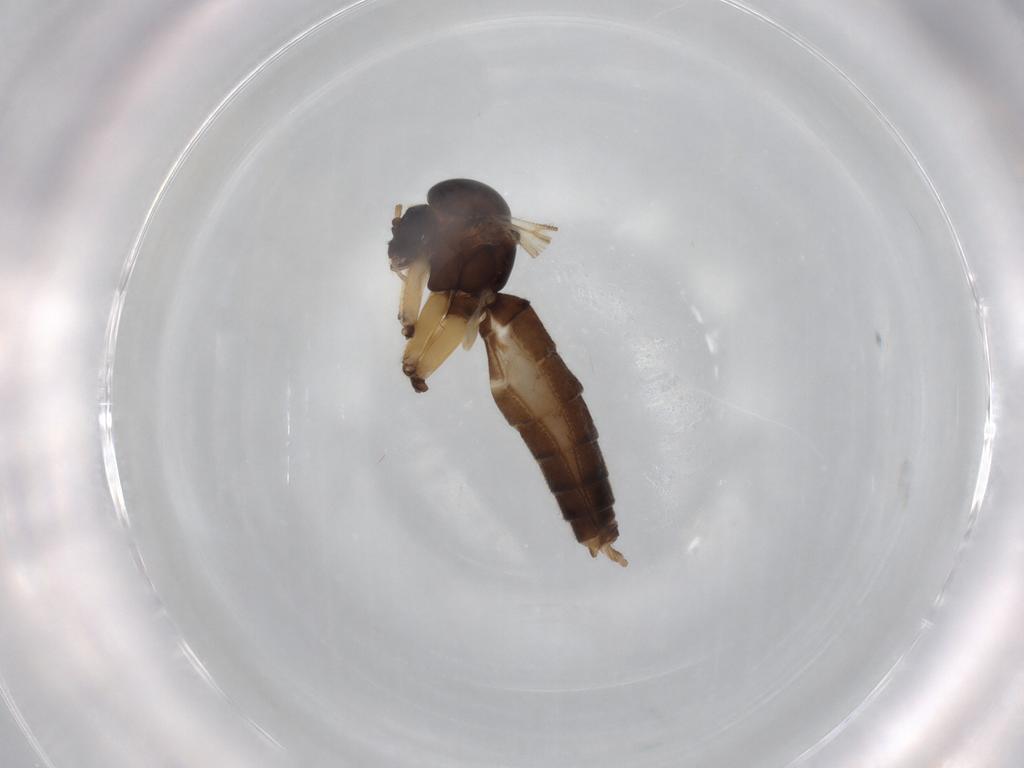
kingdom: Animalia
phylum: Arthropoda
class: Insecta
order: Diptera
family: Mycetophilidae
